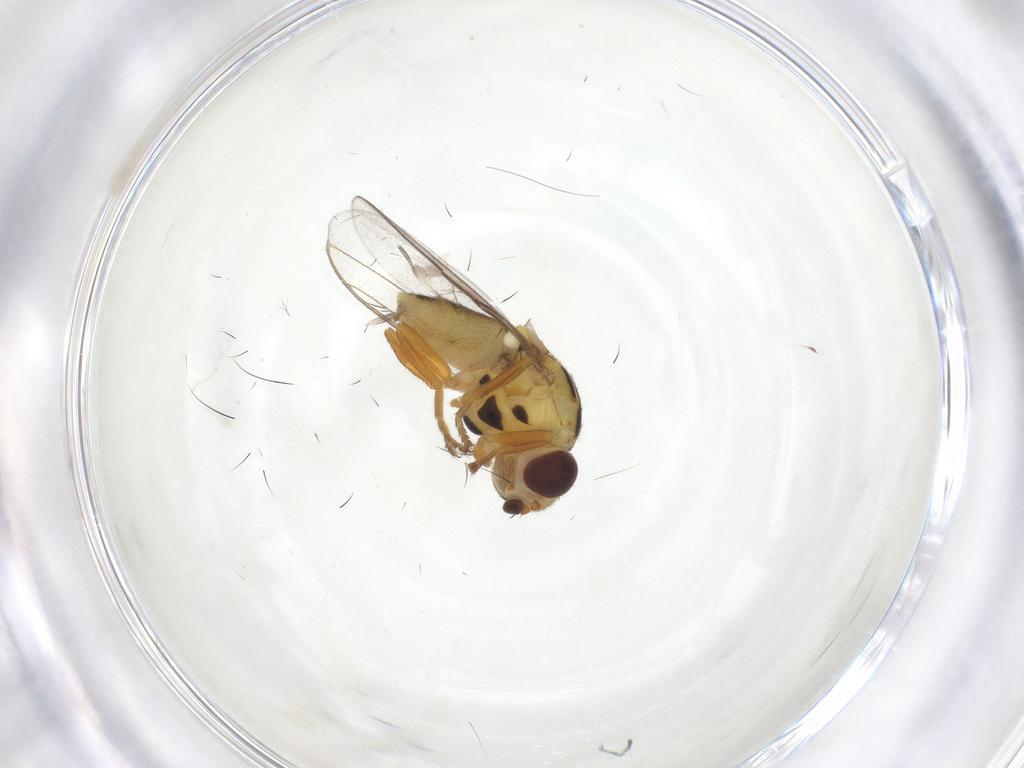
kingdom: Animalia
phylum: Arthropoda
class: Insecta
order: Diptera
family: Chloropidae
